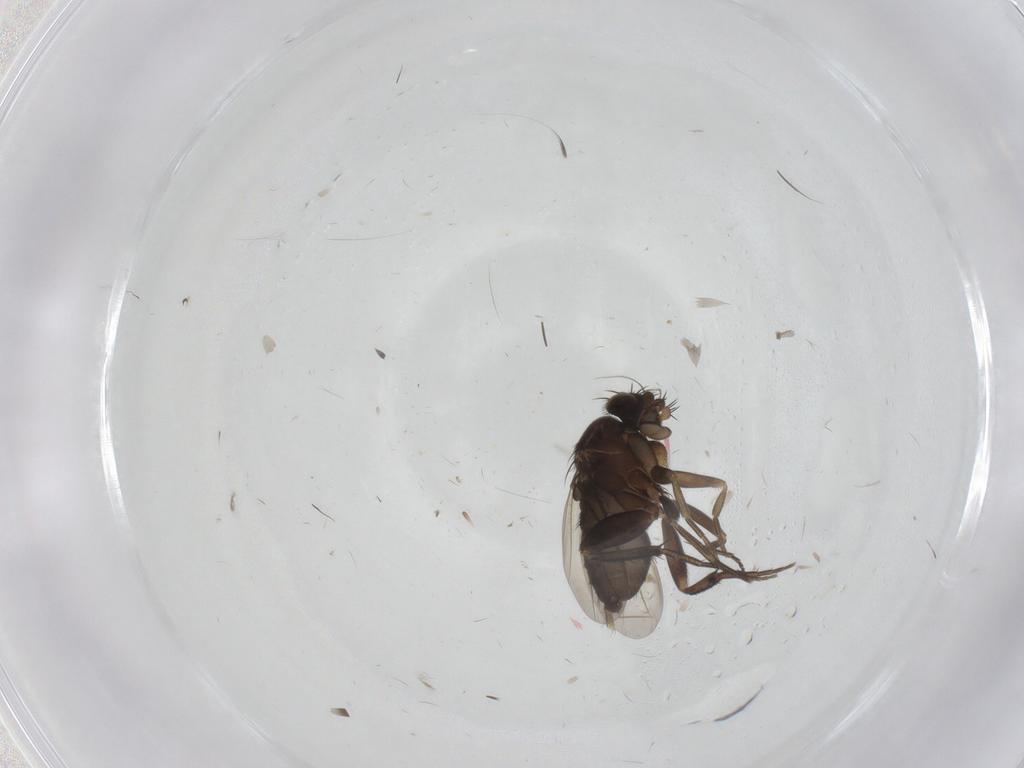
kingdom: Animalia
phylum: Arthropoda
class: Insecta
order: Diptera
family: Phoridae
